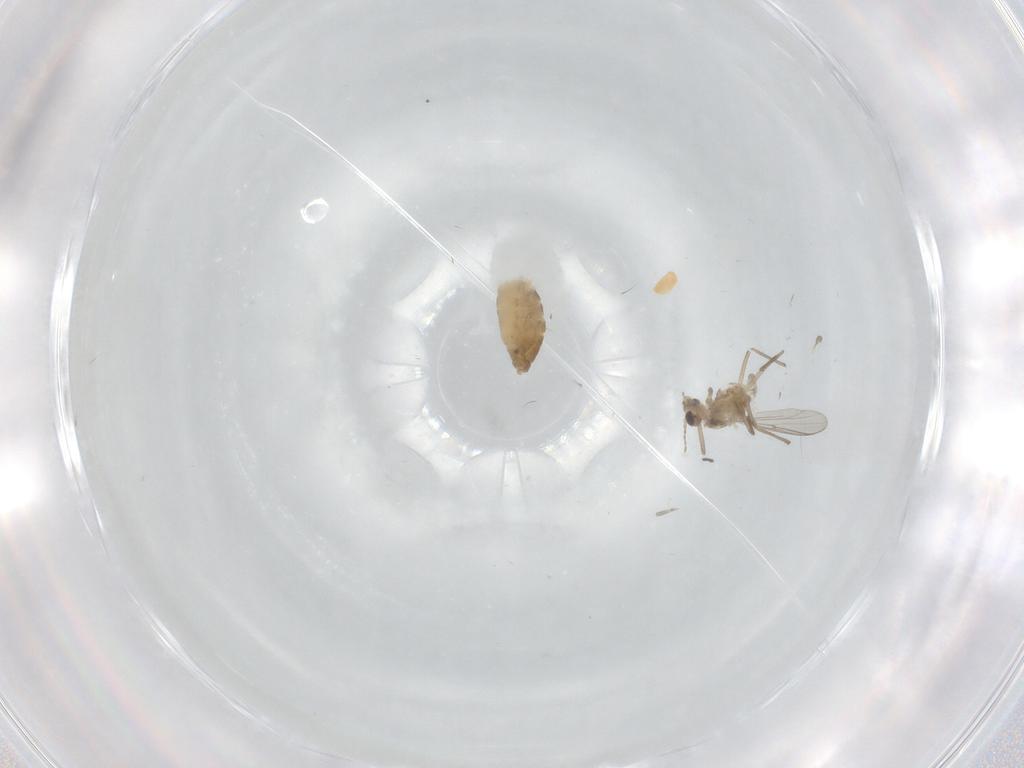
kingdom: Animalia
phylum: Arthropoda
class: Insecta
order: Diptera
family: Chironomidae
